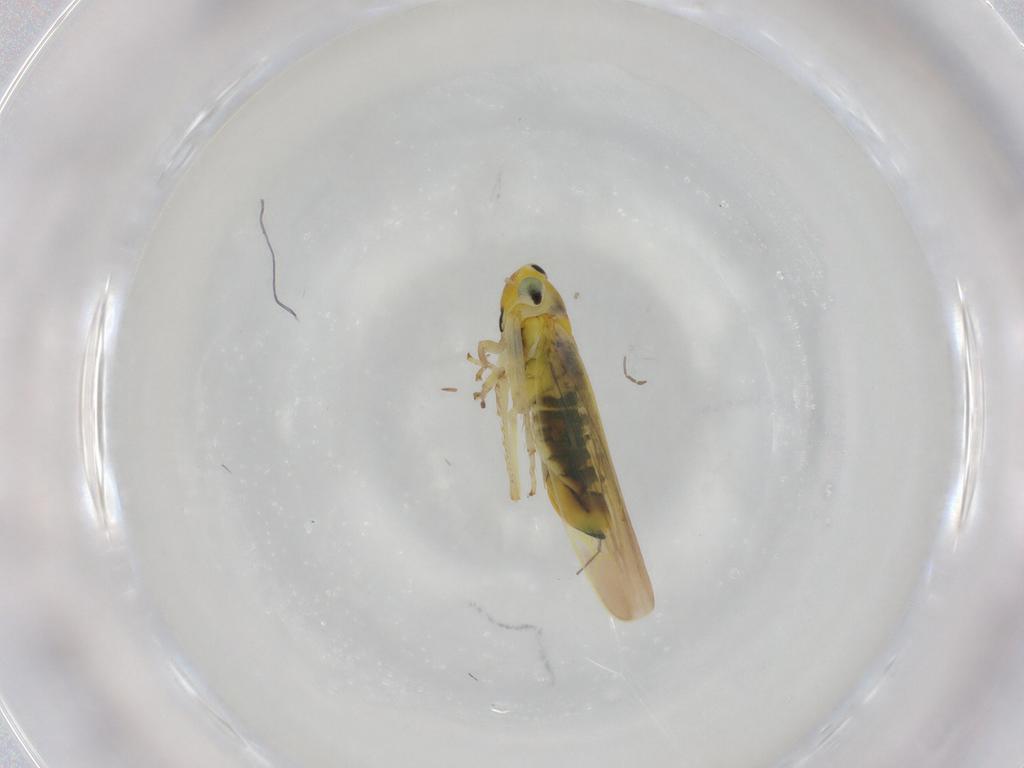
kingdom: Animalia
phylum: Arthropoda
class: Insecta
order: Hemiptera
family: Cicadellidae
